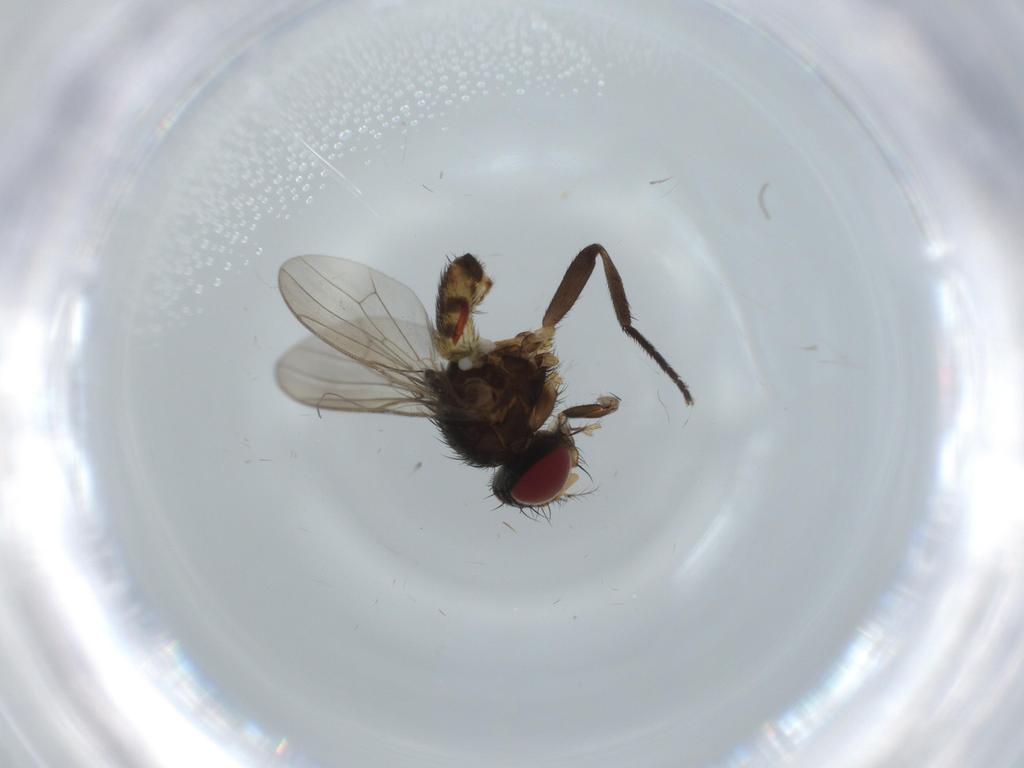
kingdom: Animalia
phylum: Arthropoda
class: Insecta
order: Diptera
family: Anthomyiidae
